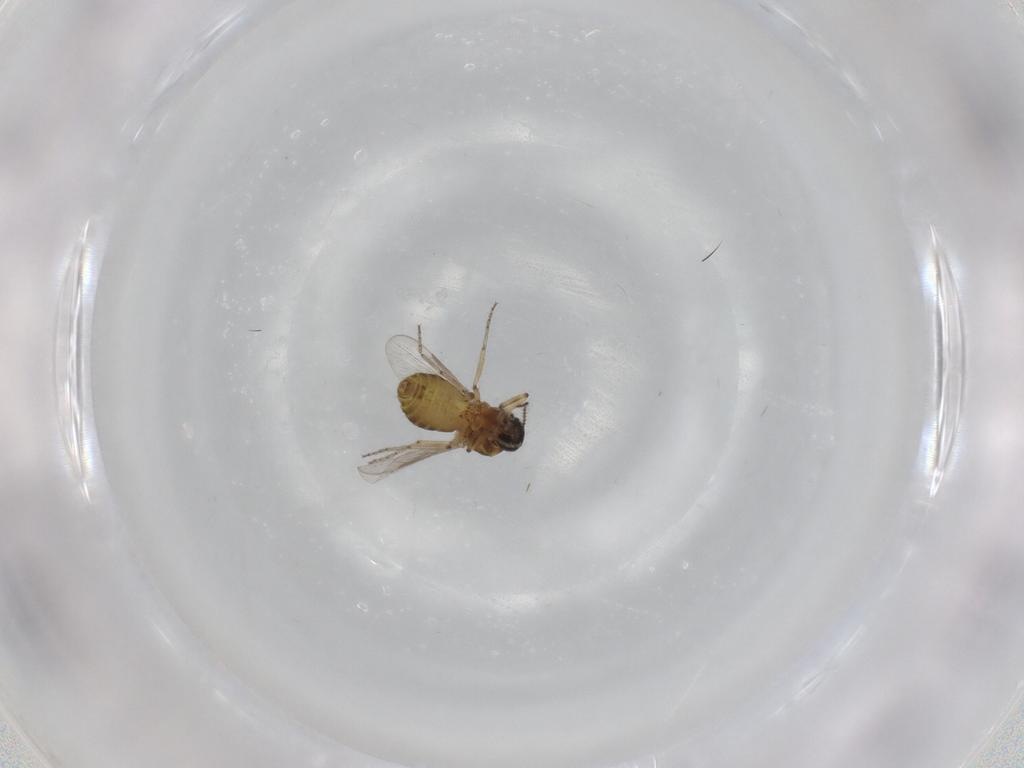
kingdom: Animalia
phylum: Arthropoda
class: Insecta
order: Diptera
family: Ceratopogonidae
